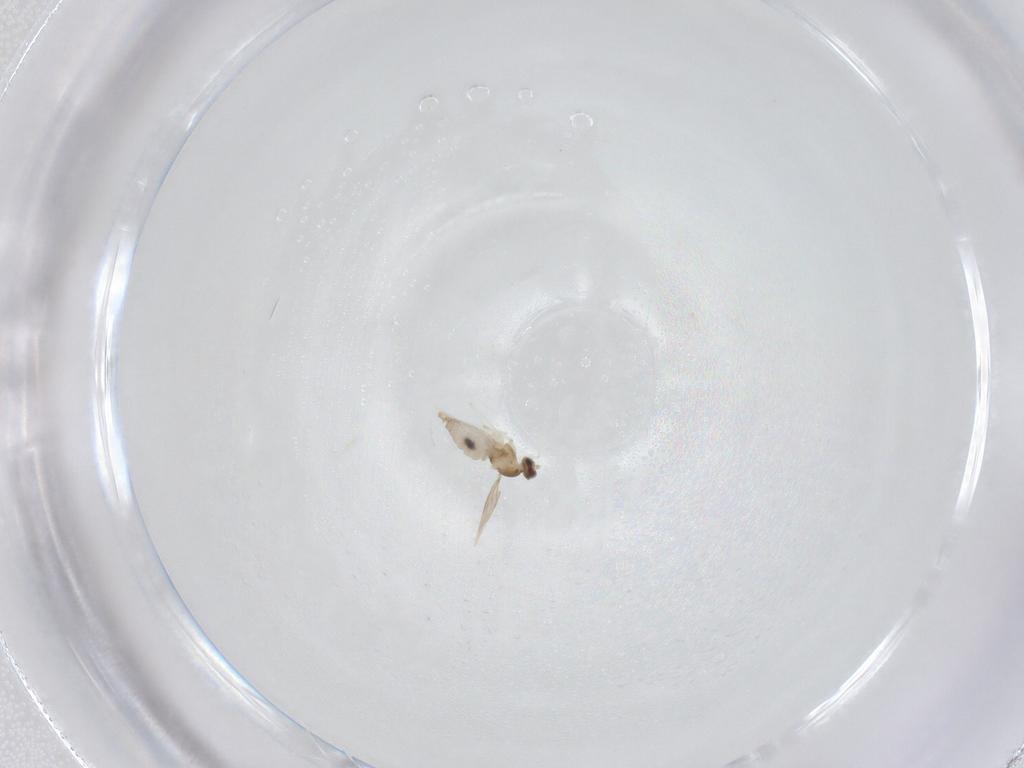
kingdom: Animalia
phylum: Arthropoda
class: Insecta
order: Diptera
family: Cecidomyiidae
